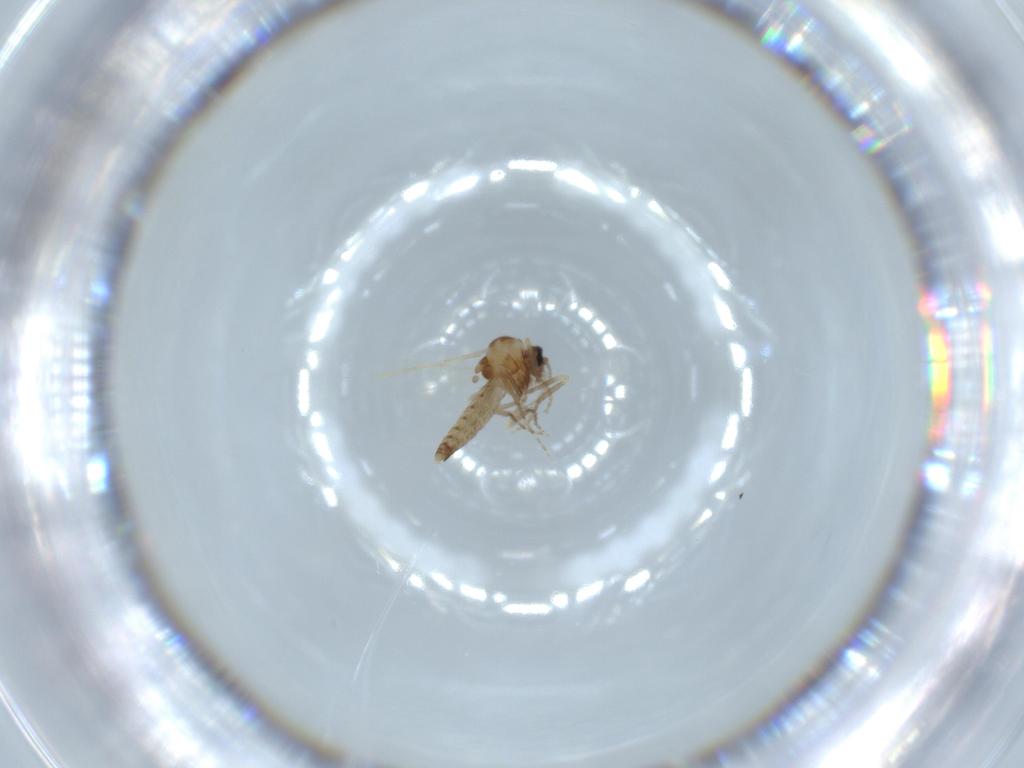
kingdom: Animalia
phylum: Arthropoda
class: Insecta
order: Diptera
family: Ceratopogonidae
